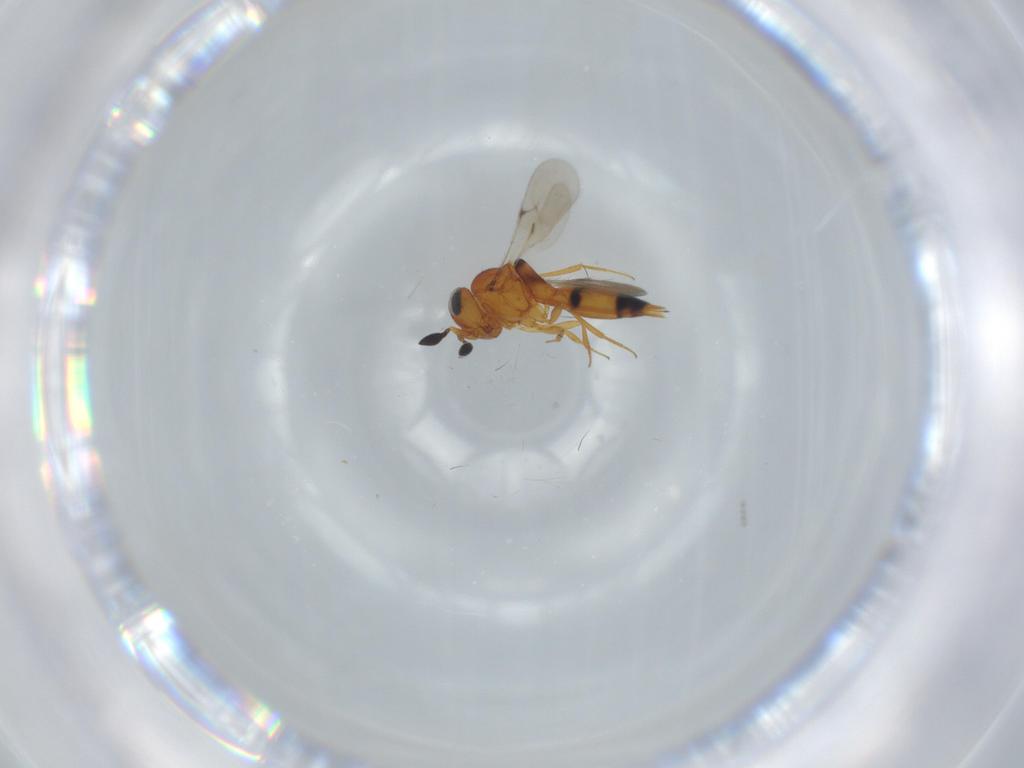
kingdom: Animalia
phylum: Arthropoda
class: Insecta
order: Hymenoptera
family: Scelionidae
